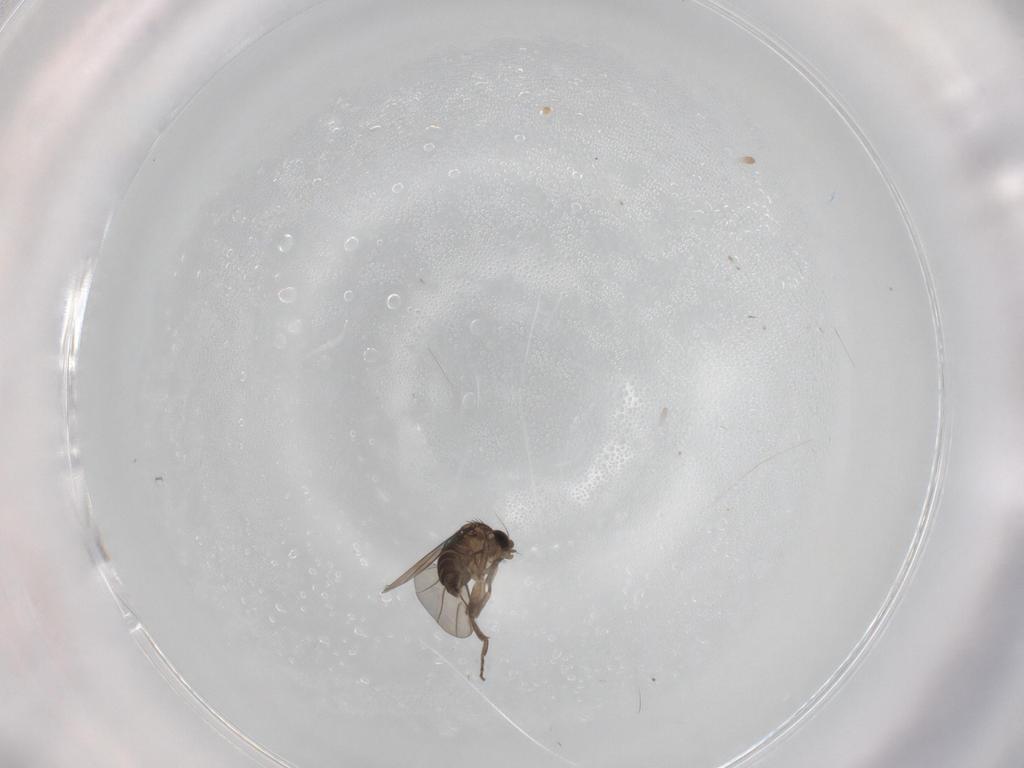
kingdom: Animalia
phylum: Arthropoda
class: Insecta
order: Diptera
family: Phoridae
